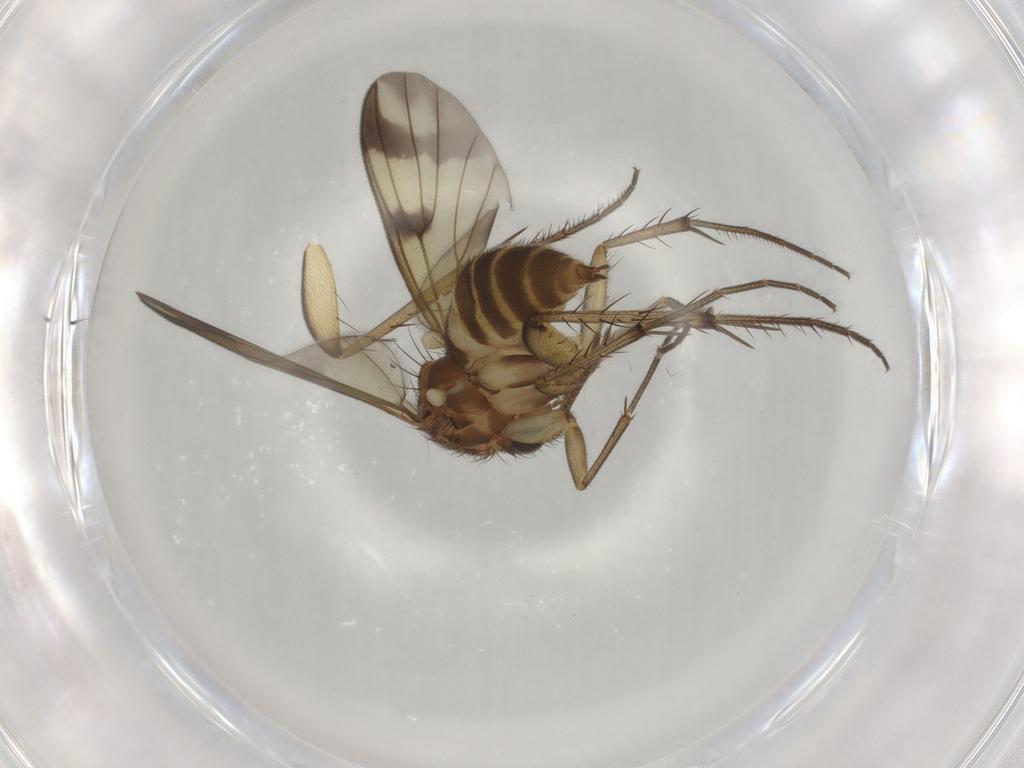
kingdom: Animalia
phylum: Arthropoda
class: Insecta
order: Diptera
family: Mycetophilidae
